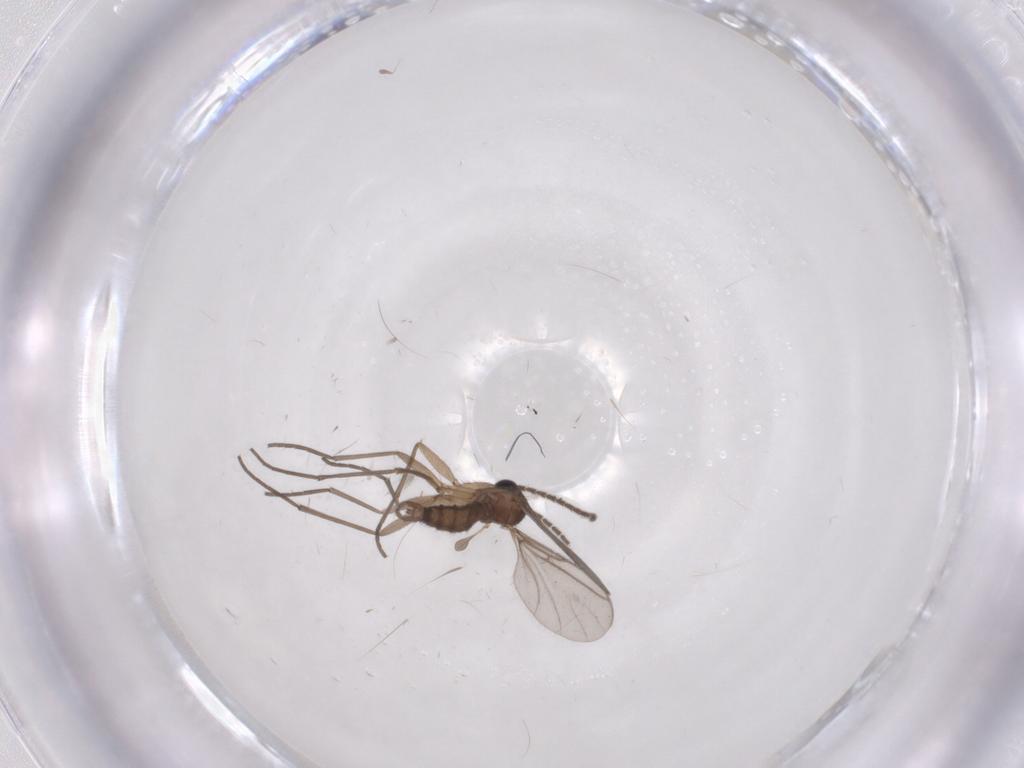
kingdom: Animalia
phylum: Arthropoda
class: Insecta
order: Diptera
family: Sciaridae
